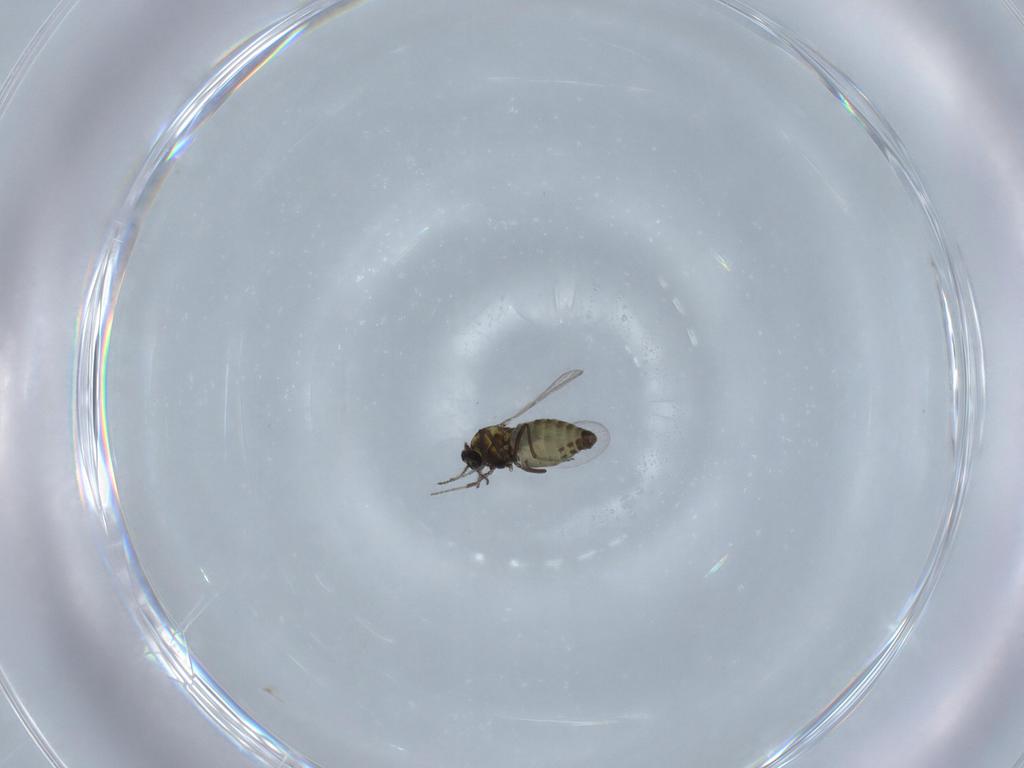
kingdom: Animalia
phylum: Arthropoda
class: Insecta
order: Diptera
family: Ceratopogonidae
